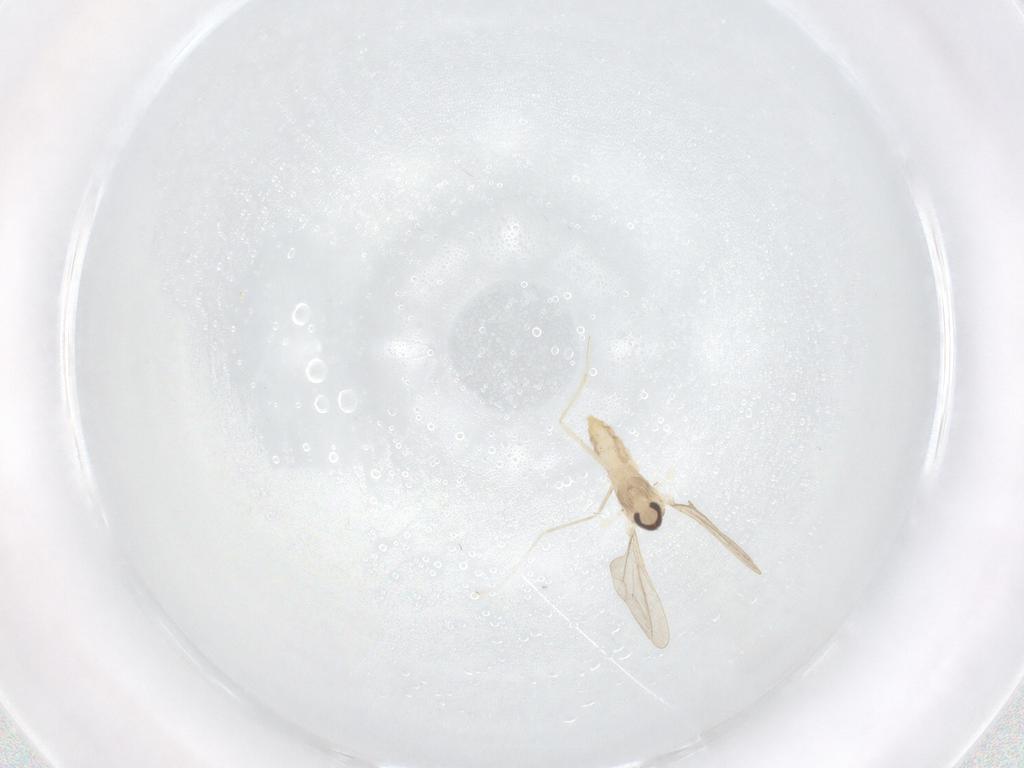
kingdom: Animalia
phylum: Arthropoda
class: Insecta
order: Diptera
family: Cecidomyiidae
